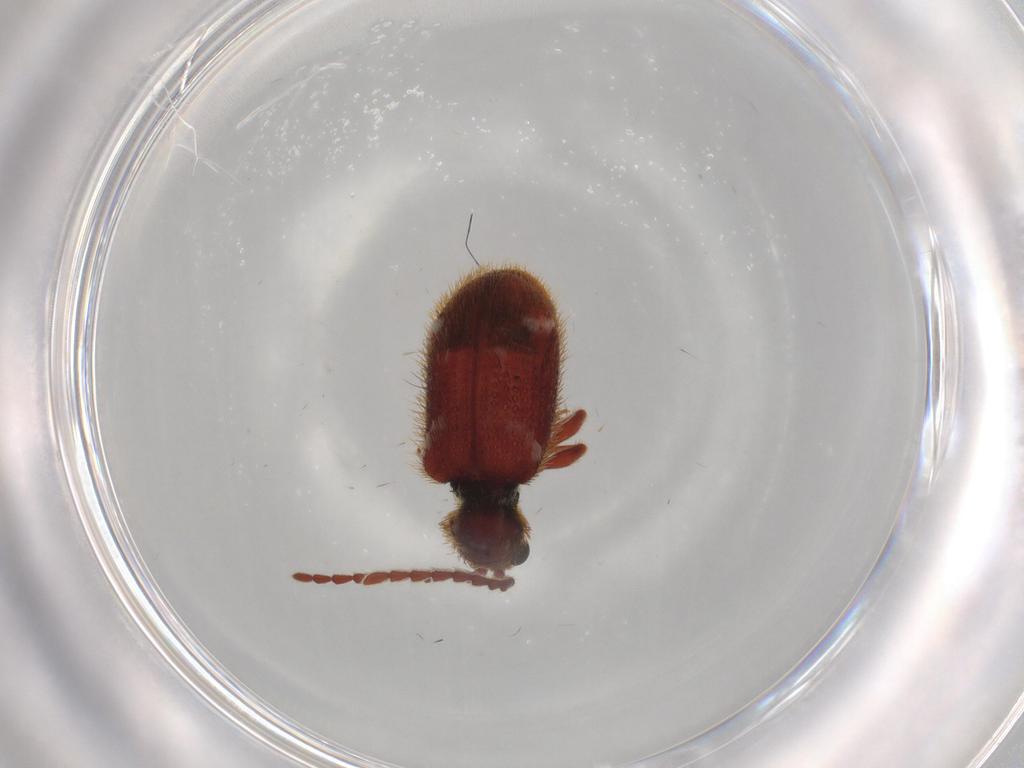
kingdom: Animalia
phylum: Arthropoda
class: Insecta
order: Coleoptera
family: Ptinidae
